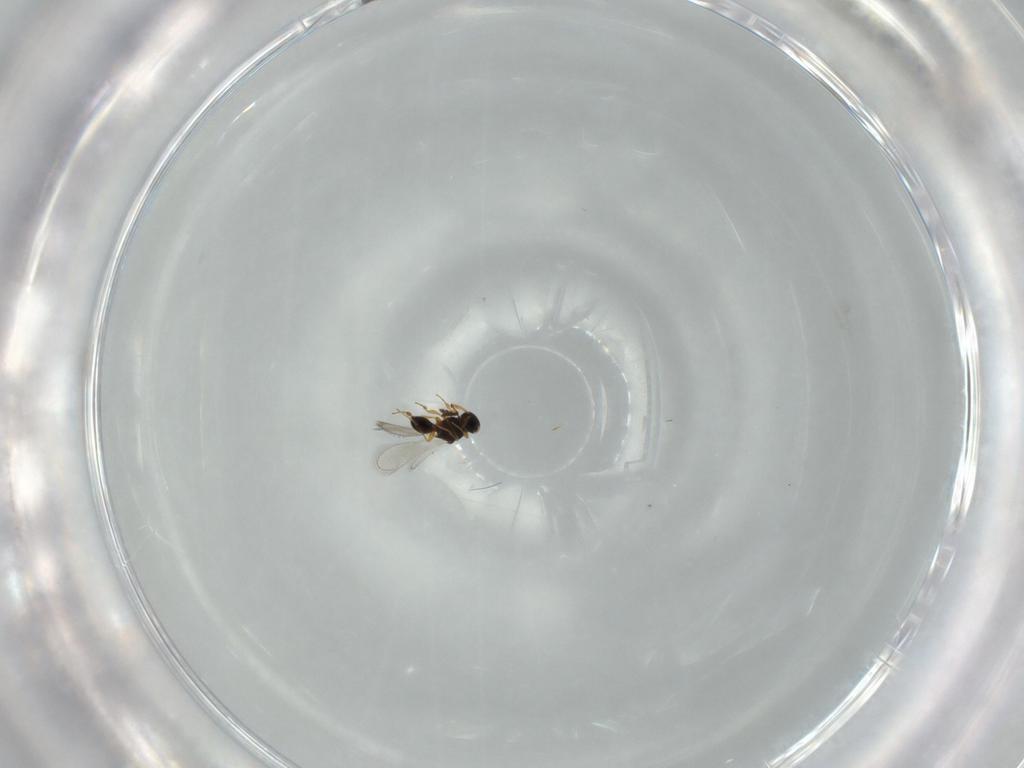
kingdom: Animalia
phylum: Arthropoda
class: Insecta
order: Hymenoptera
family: Platygastridae
